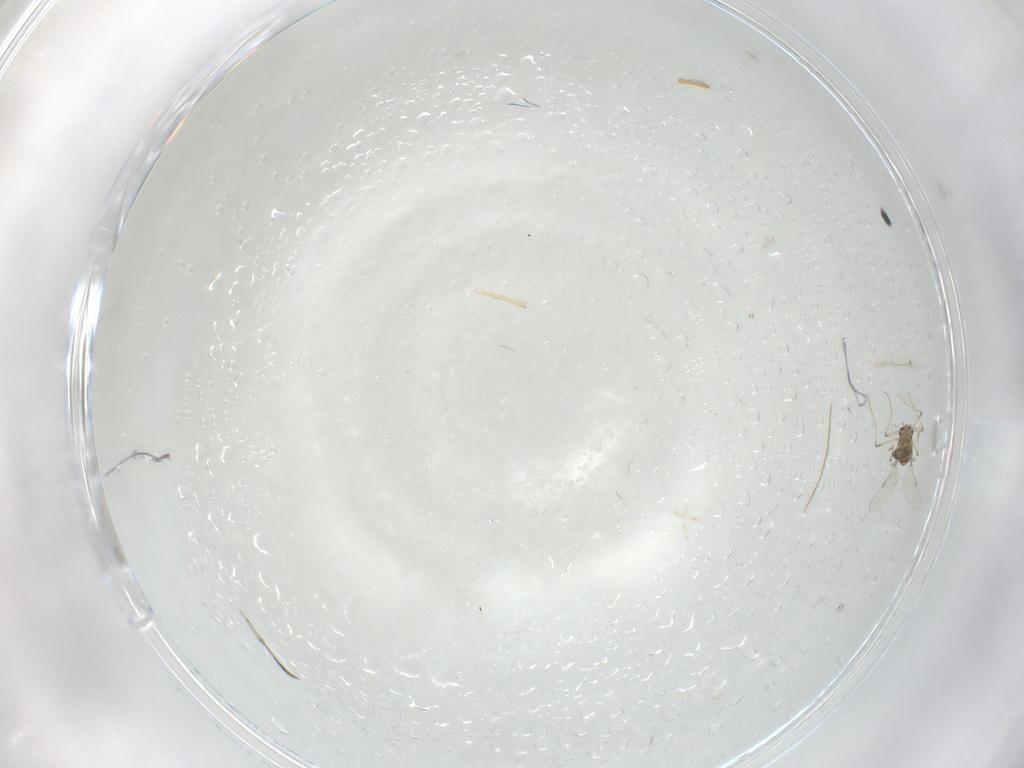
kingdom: Animalia
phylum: Arthropoda
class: Insecta
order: Diptera
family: Chironomidae
